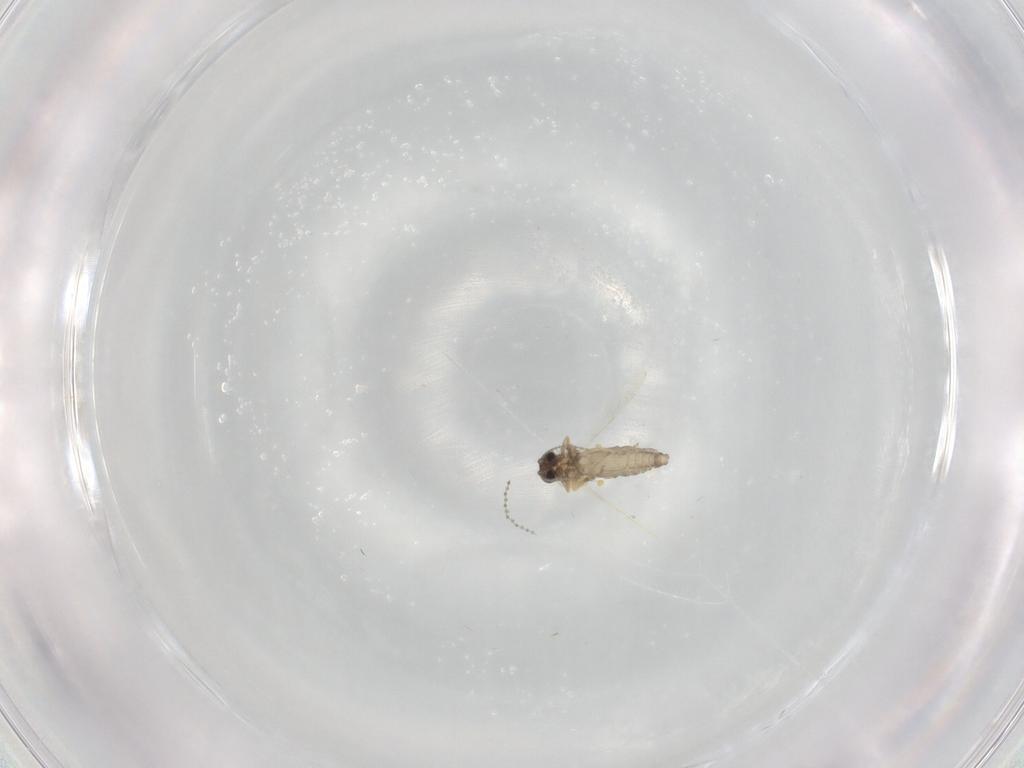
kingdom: Animalia
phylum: Arthropoda
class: Insecta
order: Diptera
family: Ceratopogonidae
